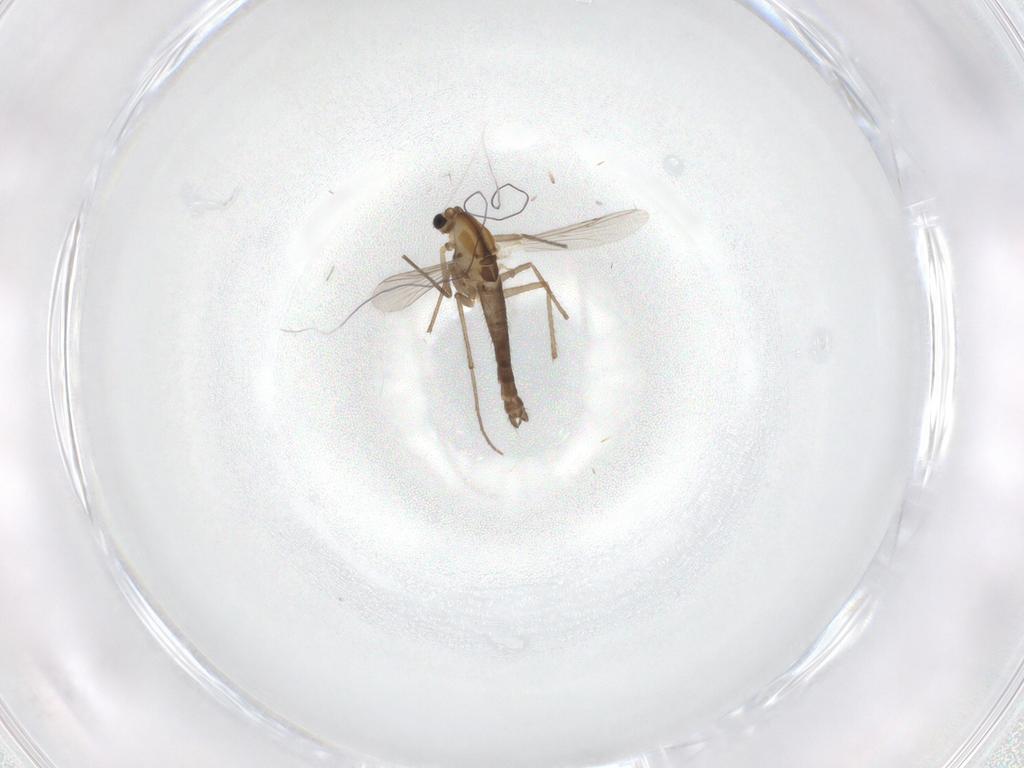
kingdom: Animalia
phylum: Arthropoda
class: Insecta
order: Diptera
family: Chironomidae
